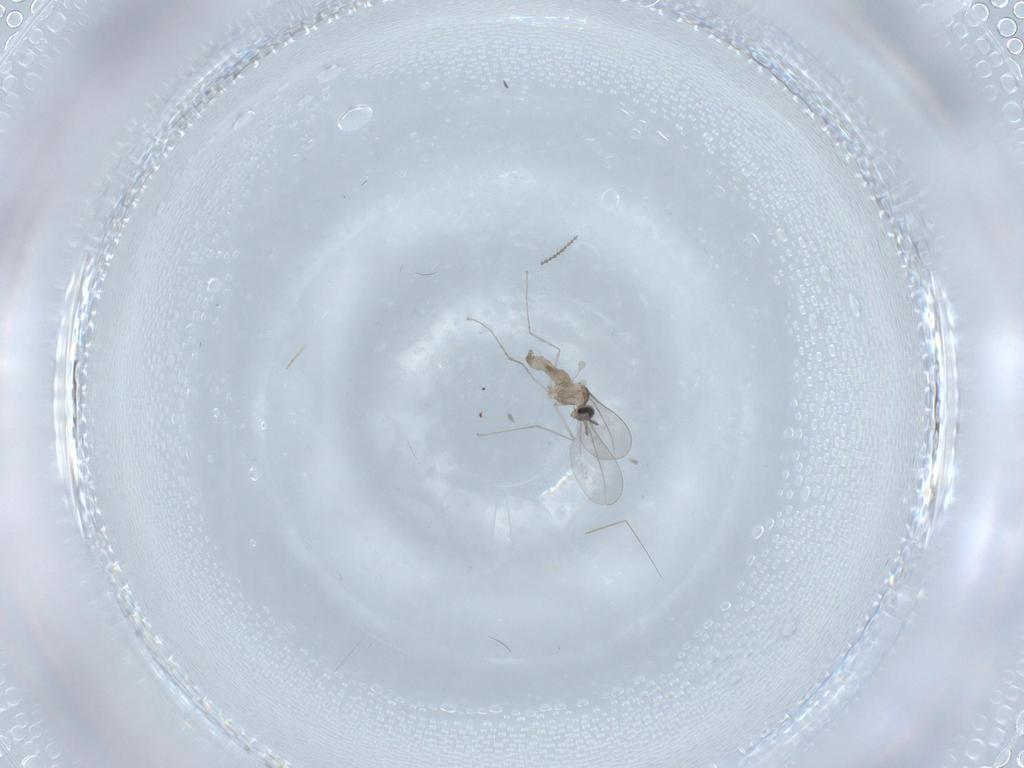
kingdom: Animalia
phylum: Arthropoda
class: Insecta
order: Diptera
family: Cecidomyiidae
